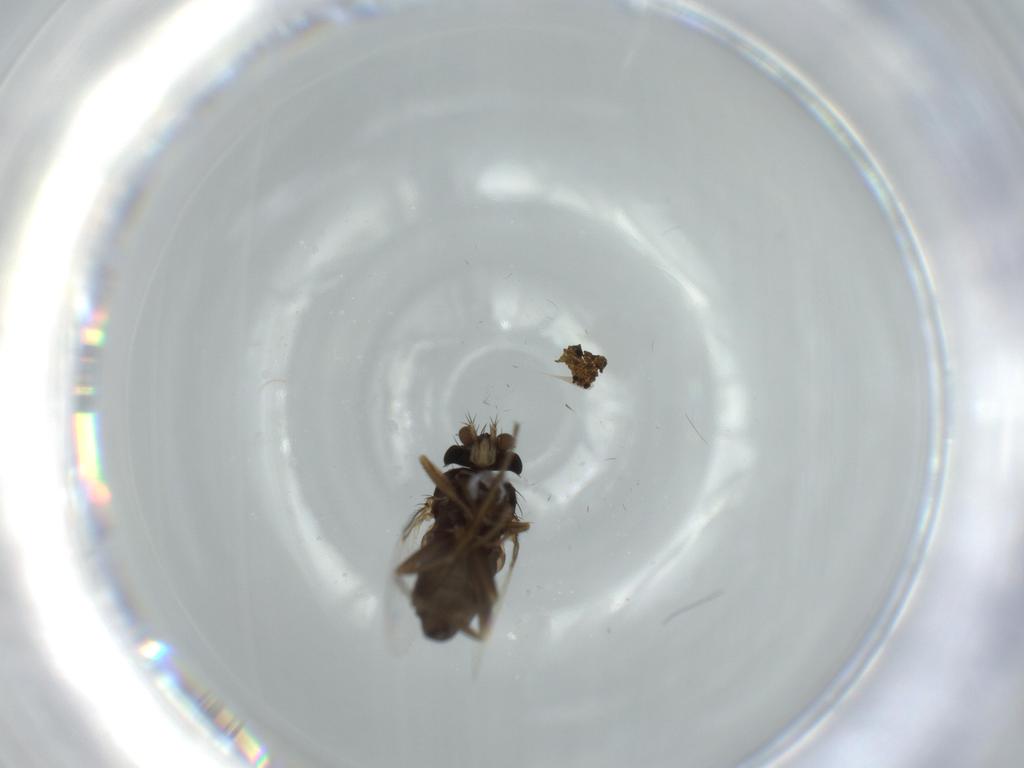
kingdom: Animalia
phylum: Arthropoda
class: Insecta
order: Diptera
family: Phoridae
